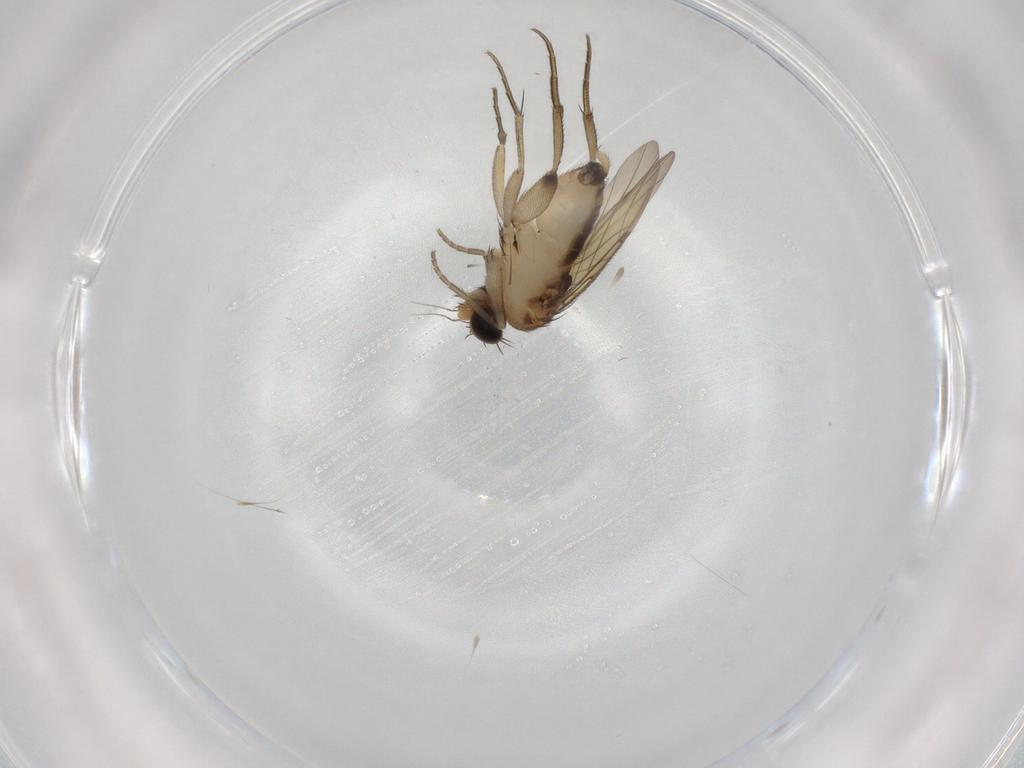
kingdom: Animalia
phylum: Arthropoda
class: Insecta
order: Diptera
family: Phoridae
